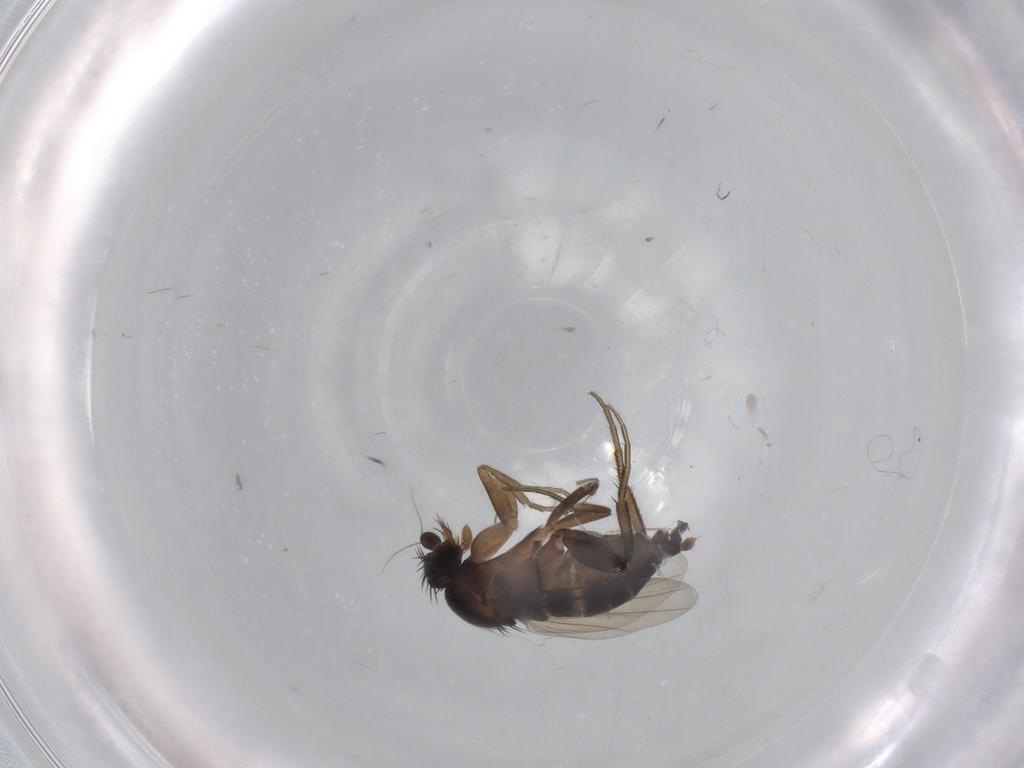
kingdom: Animalia
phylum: Arthropoda
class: Insecta
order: Diptera
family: Phoridae
